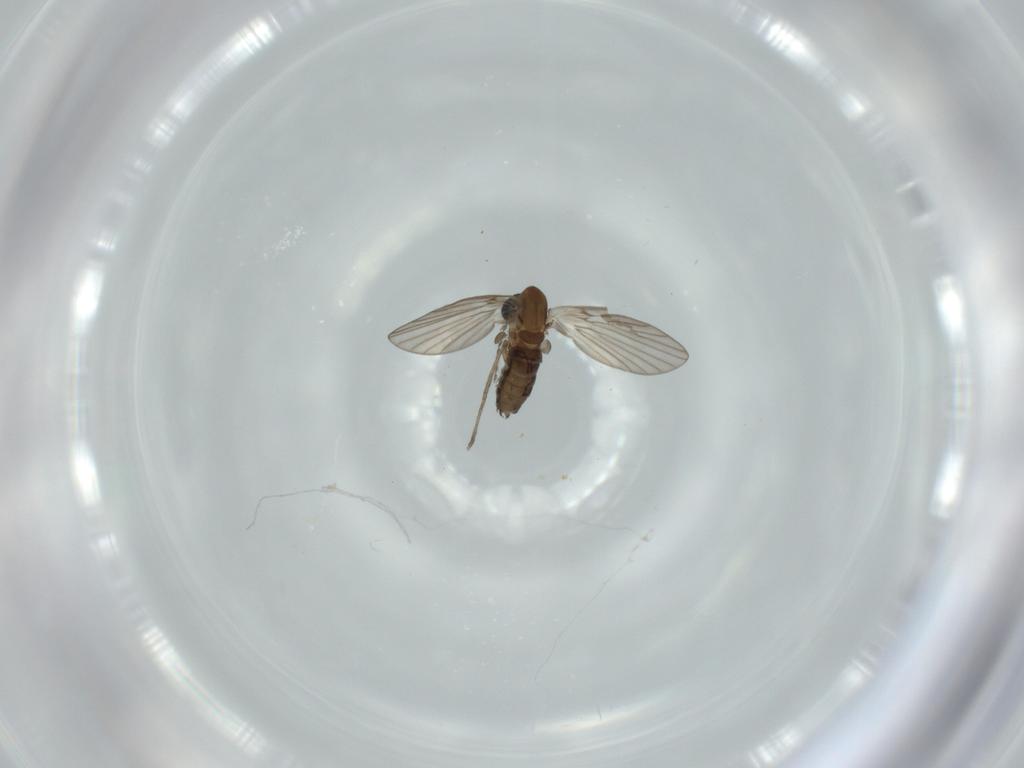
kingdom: Animalia
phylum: Arthropoda
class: Insecta
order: Diptera
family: Psychodidae
